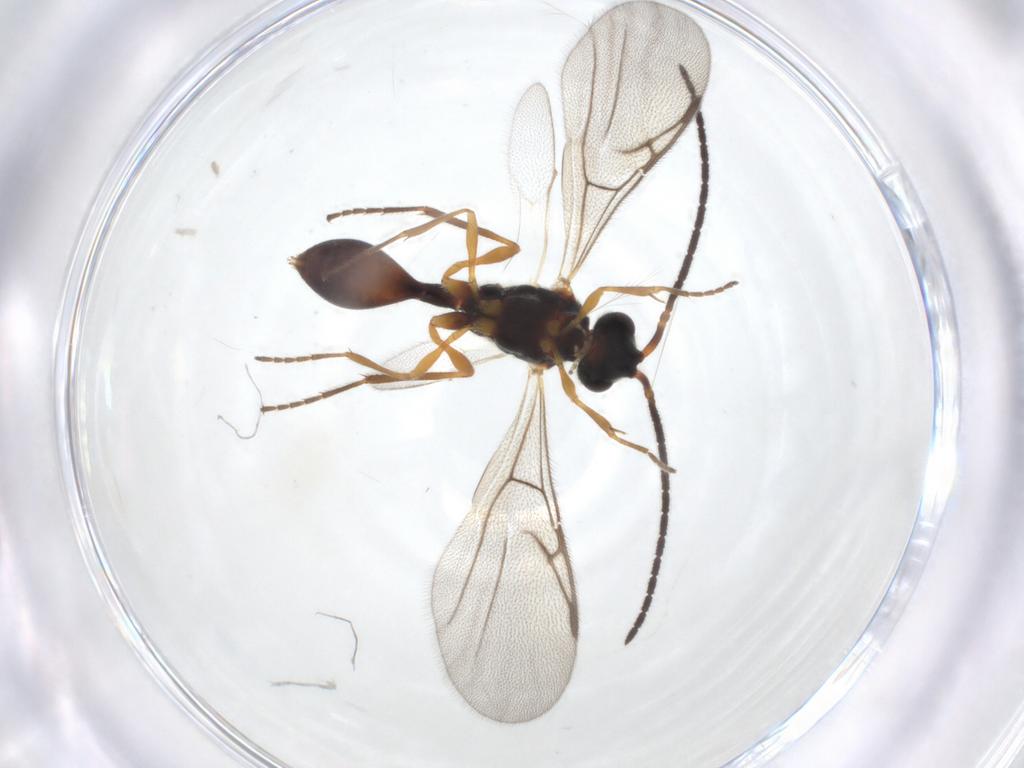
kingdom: Animalia
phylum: Arthropoda
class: Insecta
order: Hymenoptera
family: Diapriidae
